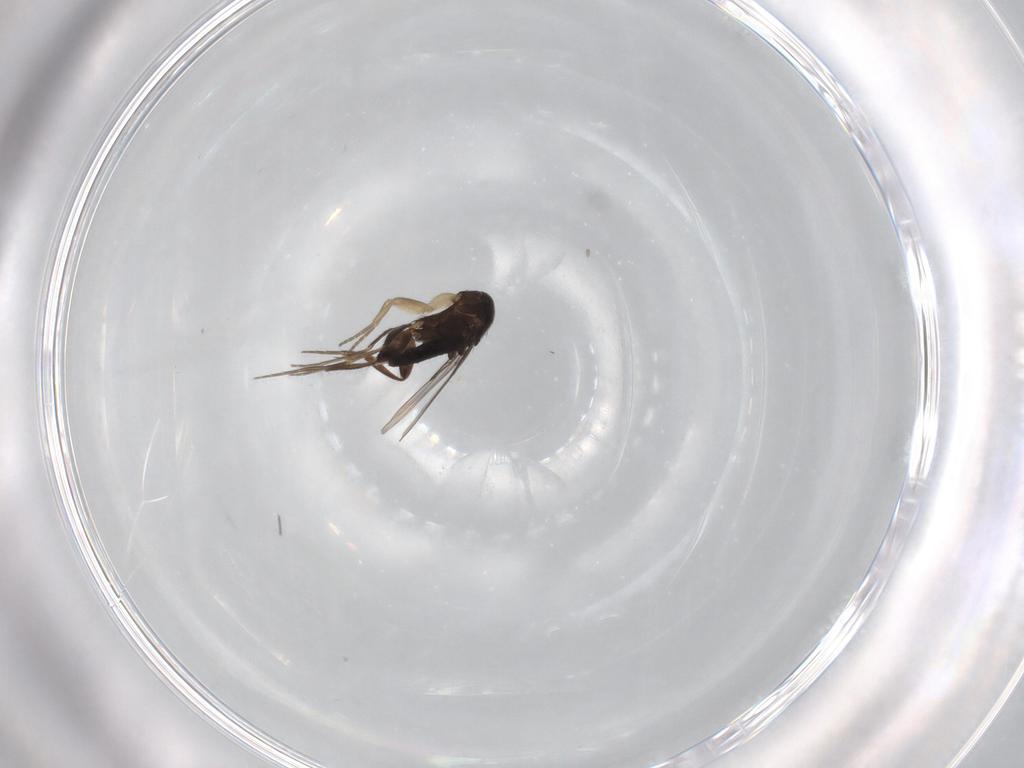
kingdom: Animalia
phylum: Arthropoda
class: Insecta
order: Diptera
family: Phoridae
